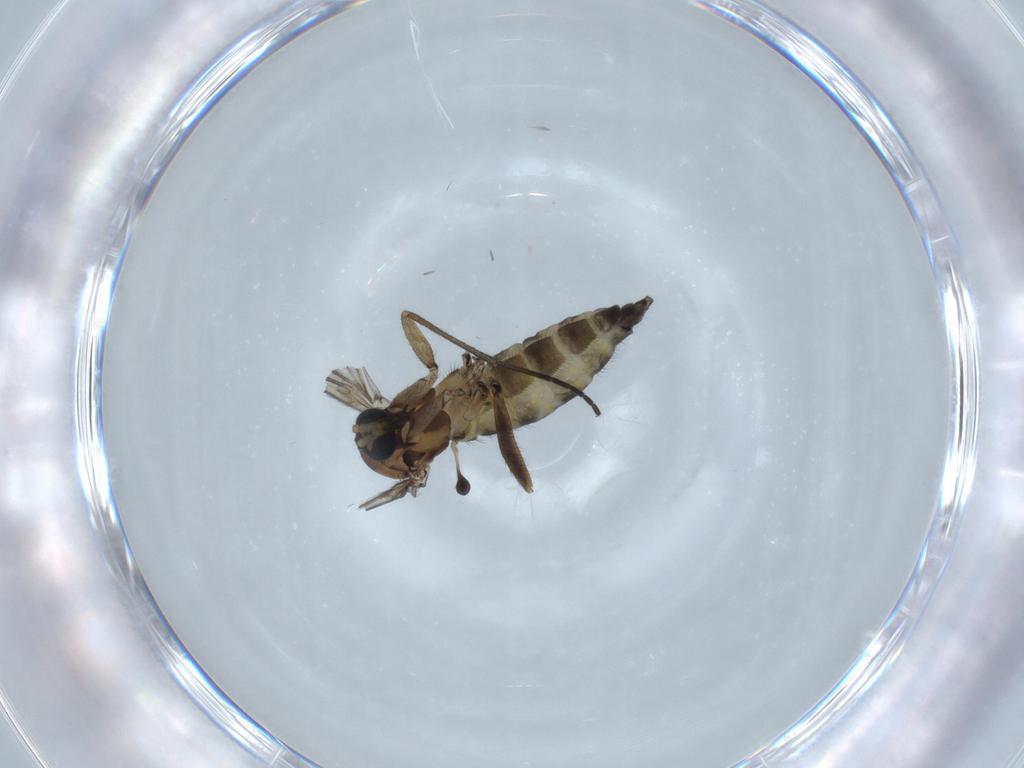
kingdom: Animalia
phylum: Arthropoda
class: Insecta
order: Diptera
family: Sciaridae
